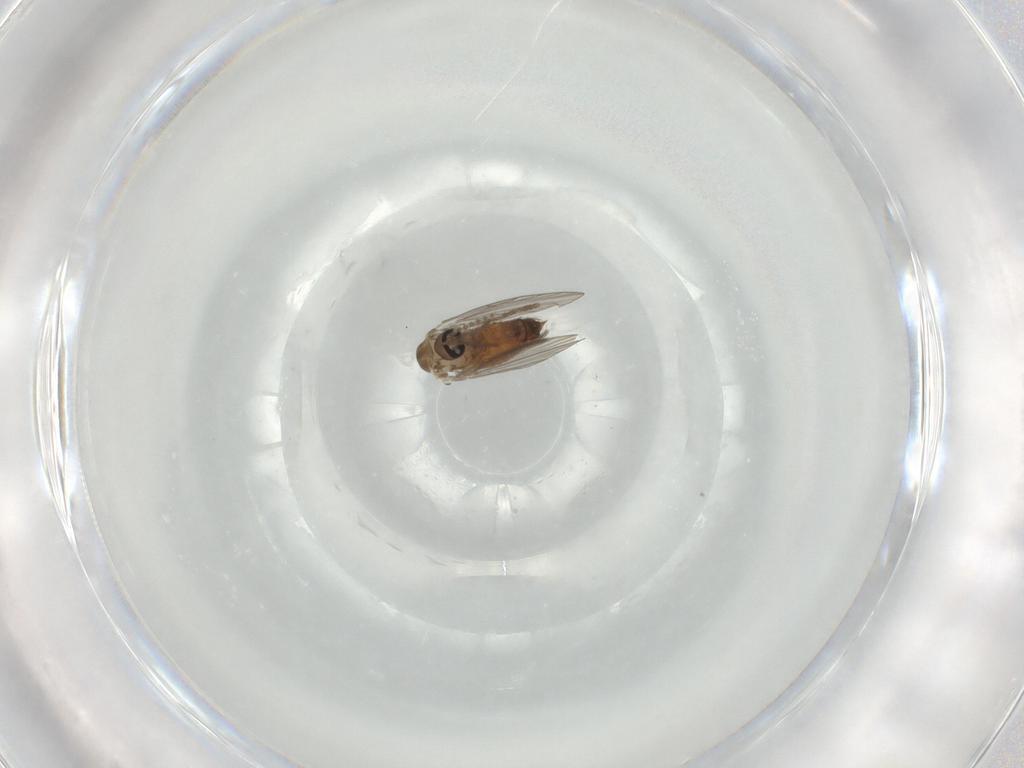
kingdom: Animalia
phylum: Arthropoda
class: Insecta
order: Diptera
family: Psychodidae
